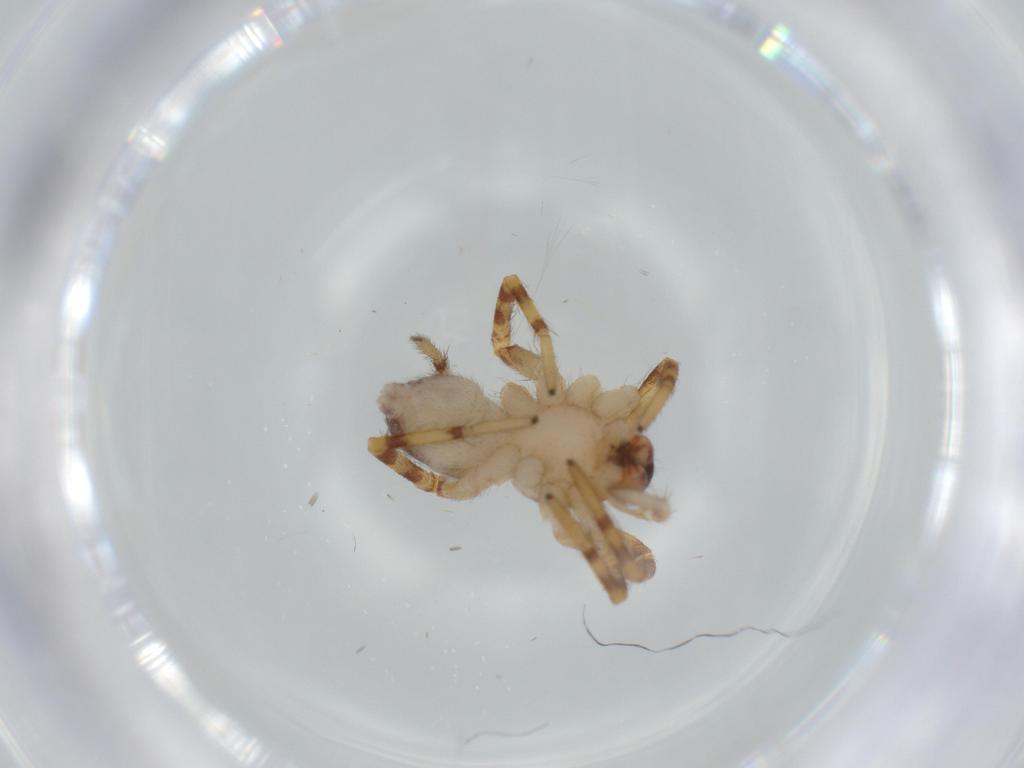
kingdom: Animalia
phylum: Arthropoda
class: Arachnida
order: Araneae
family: Corinnidae
